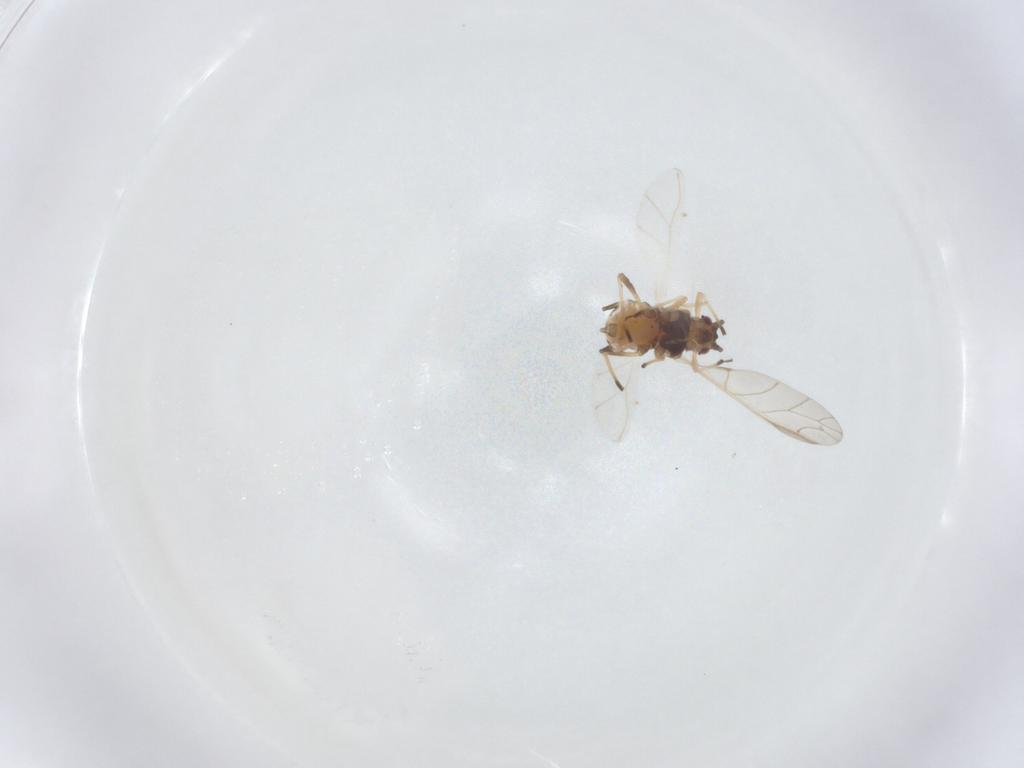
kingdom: Animalia
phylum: Arthropoda
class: Insecta
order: Hemiptera
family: Aphididae
